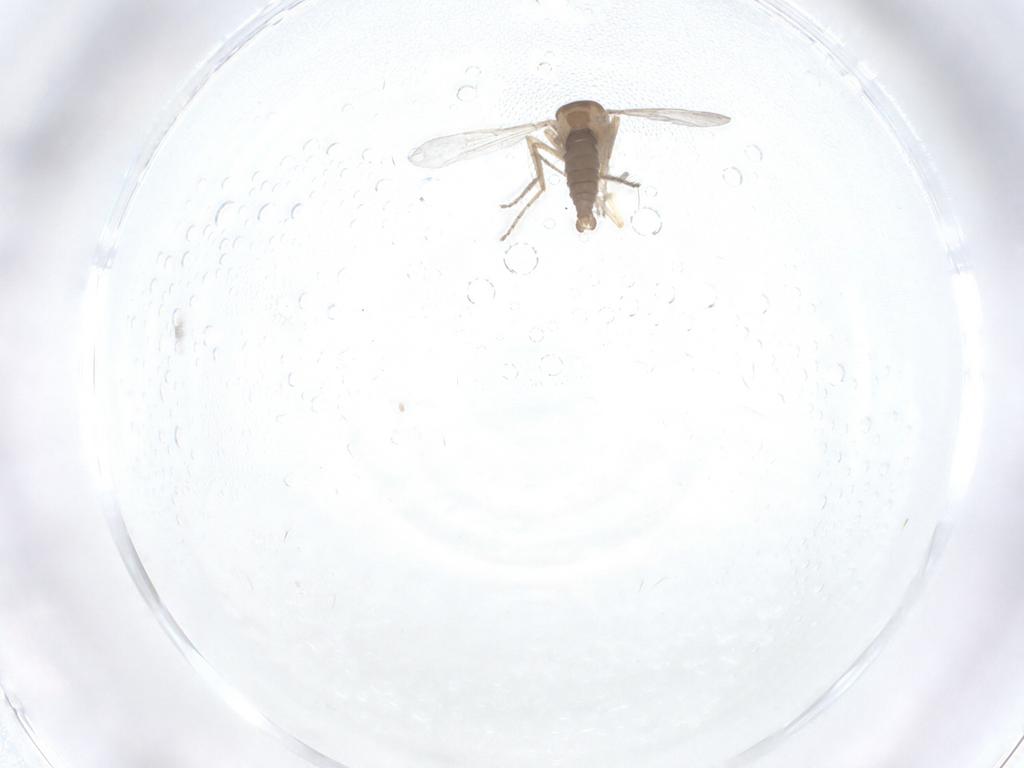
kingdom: Animalia
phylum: Arthropoda
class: Insecta
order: Diptera
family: Ceratopogonidae
